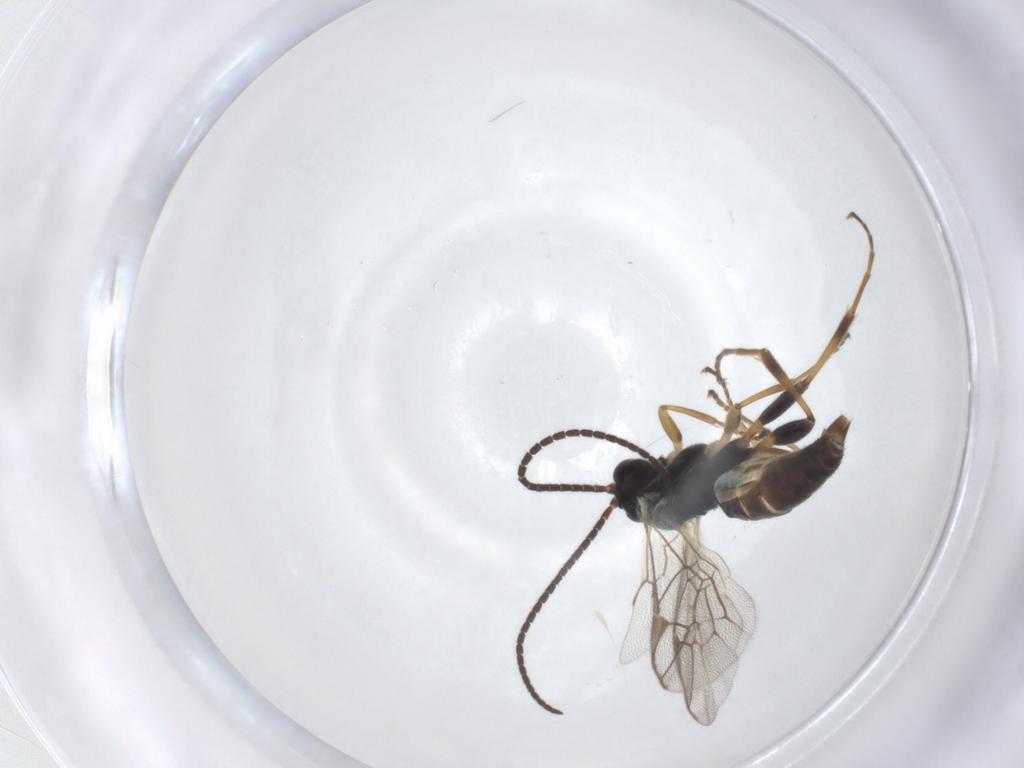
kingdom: Animalia
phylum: Arthropoda
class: Insecta
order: Hymenoptera
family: Ichneumonidae
